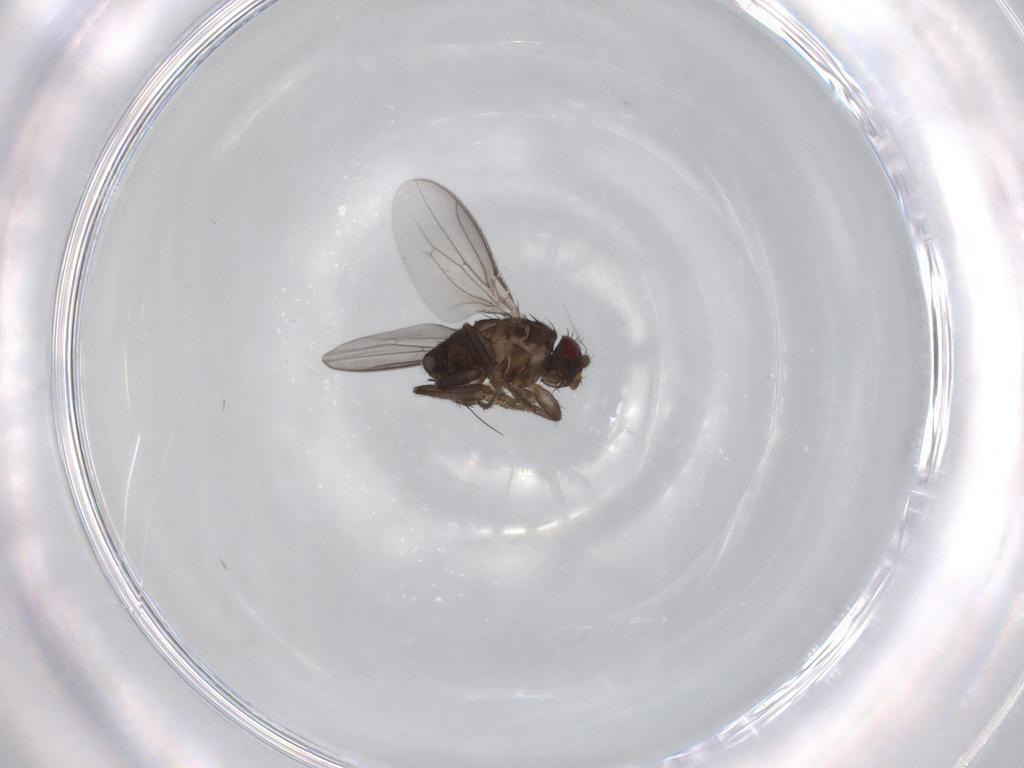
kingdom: Animalia
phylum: Arthropoda
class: Insecta
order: Diptera
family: Sphaeroceridae
